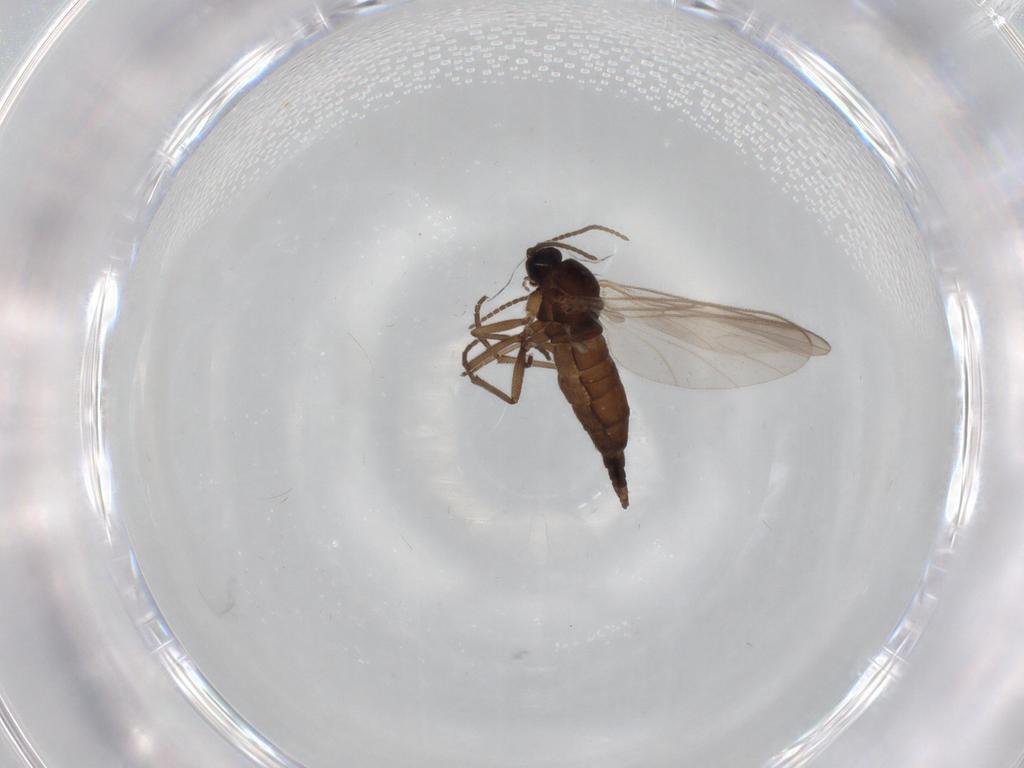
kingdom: Animalia
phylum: Arthropoda
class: Insecta
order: Diptera
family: Sciaridae
